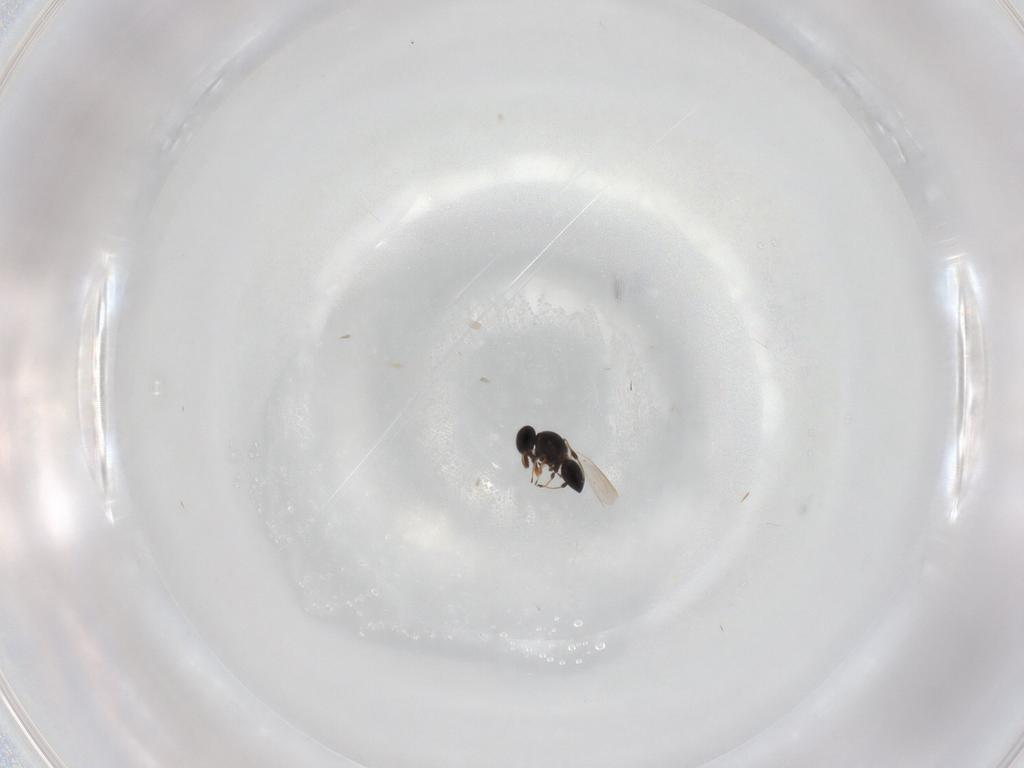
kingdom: Animalia
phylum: Arthropoda
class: Insecta
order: Hymenoptera
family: Platygastridae
